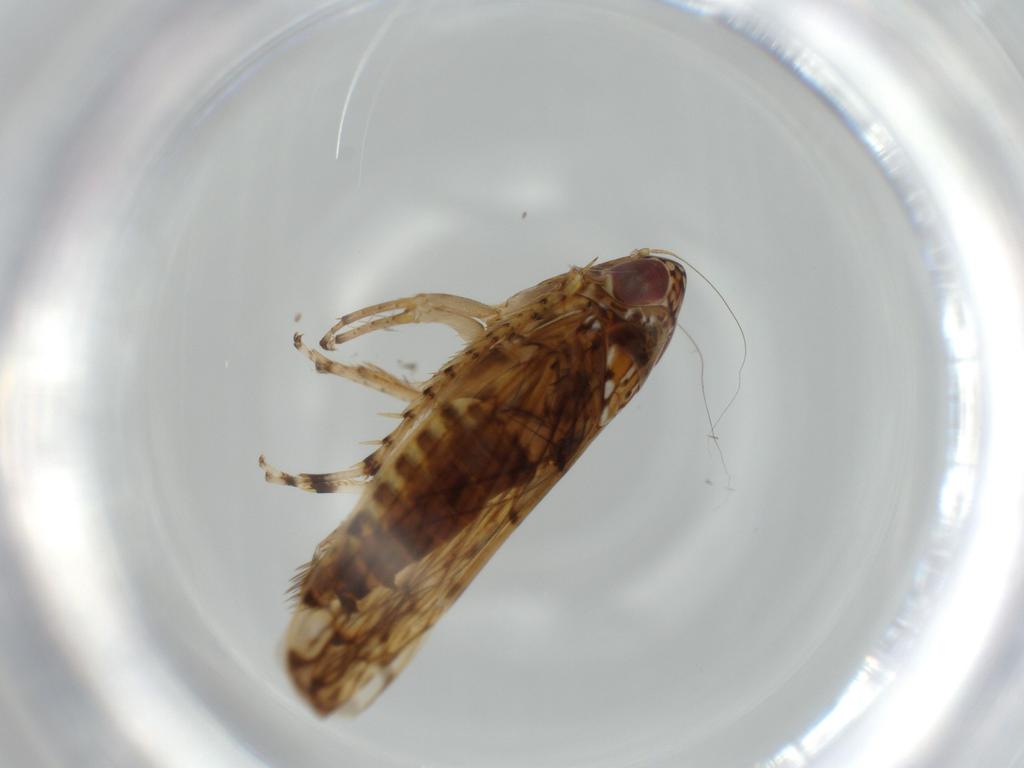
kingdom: Animalia
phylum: Arthropoda
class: Insecta
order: Hemiptera
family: Cicadellidae
